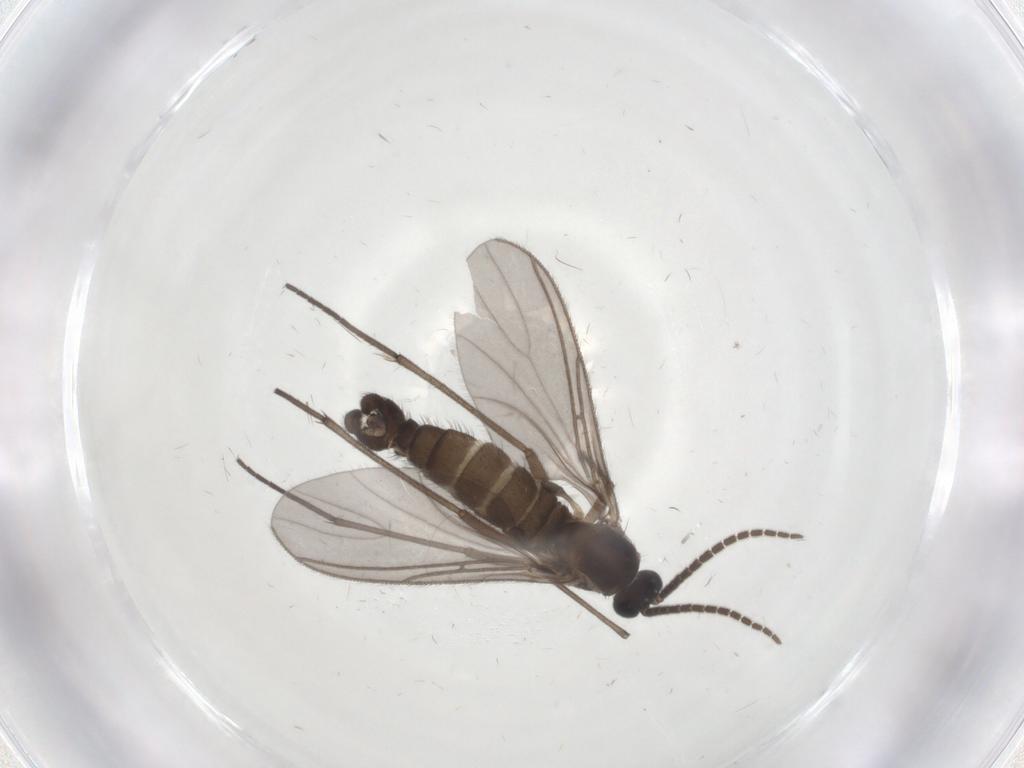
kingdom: Animalia
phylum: Arthropoda
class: Insecta
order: Diptera
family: Sciaridae
